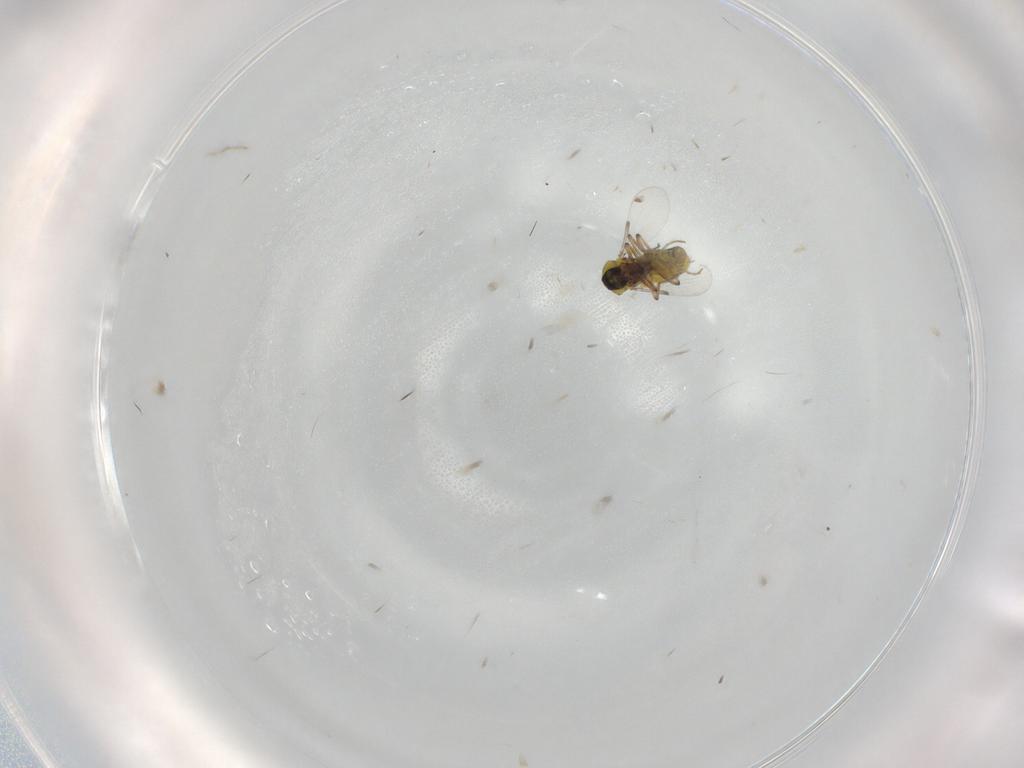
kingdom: Animalia
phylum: Arthropoda
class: Insecta
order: Diptera
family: Ceratopogonidae
